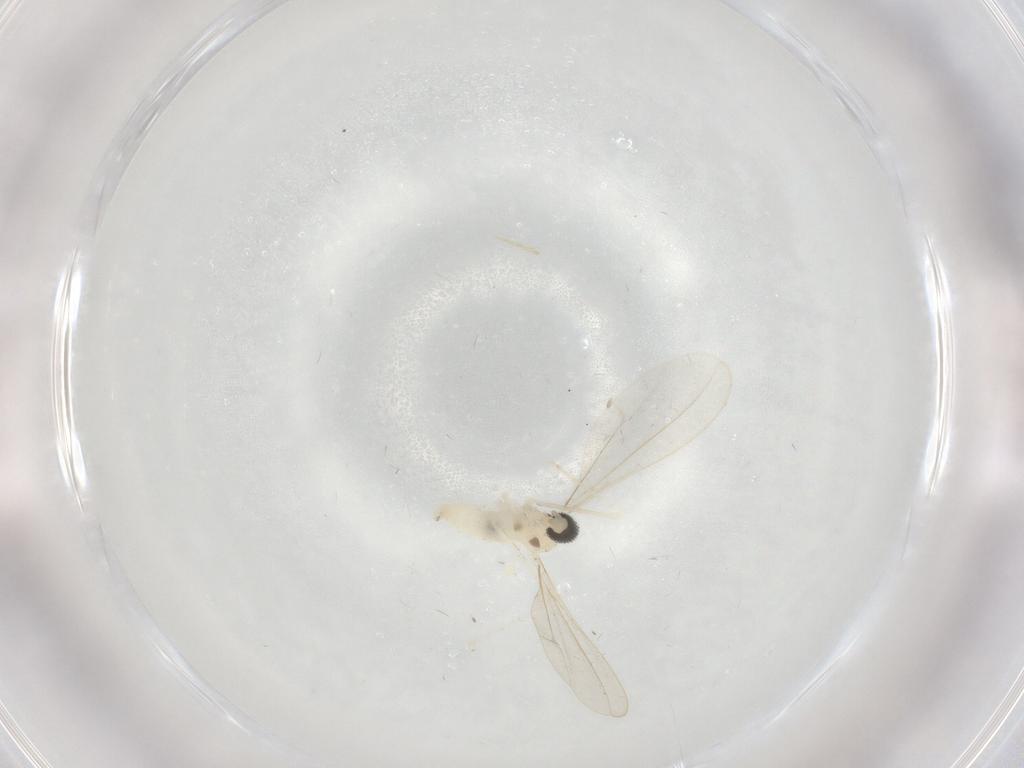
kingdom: Animalia
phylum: Arthropoda
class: Insecta
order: Diptera
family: Cecidomyiidae
